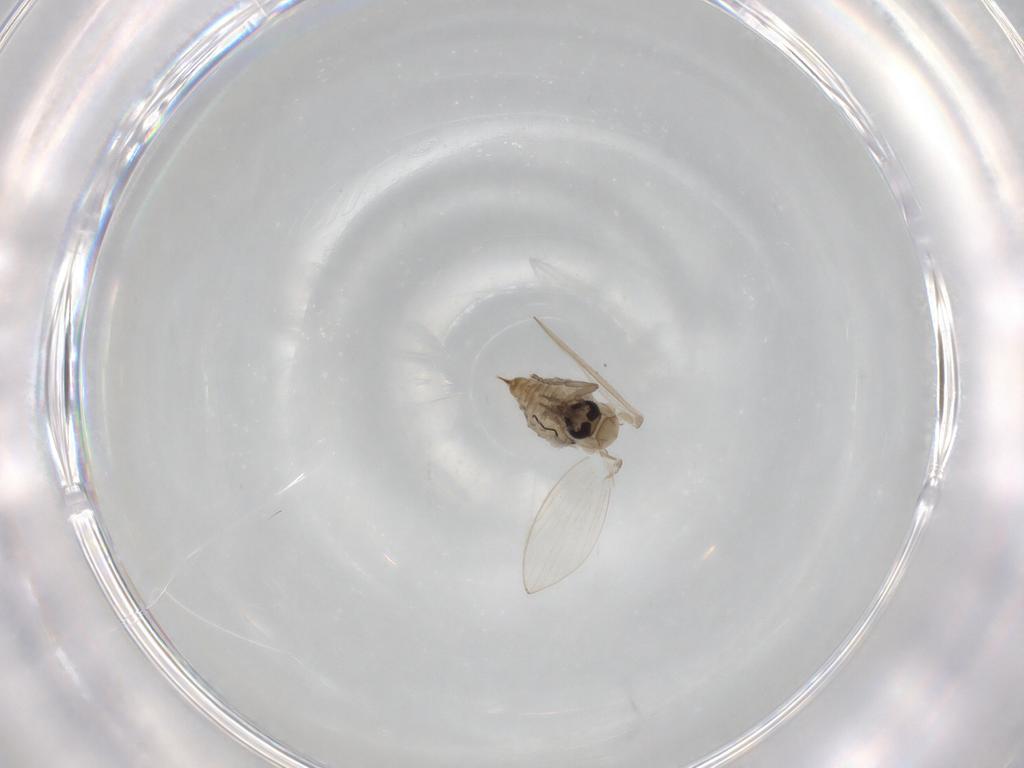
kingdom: Animalia
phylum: Arthropoda
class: Insecta
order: Diptera
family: Psychodidae
